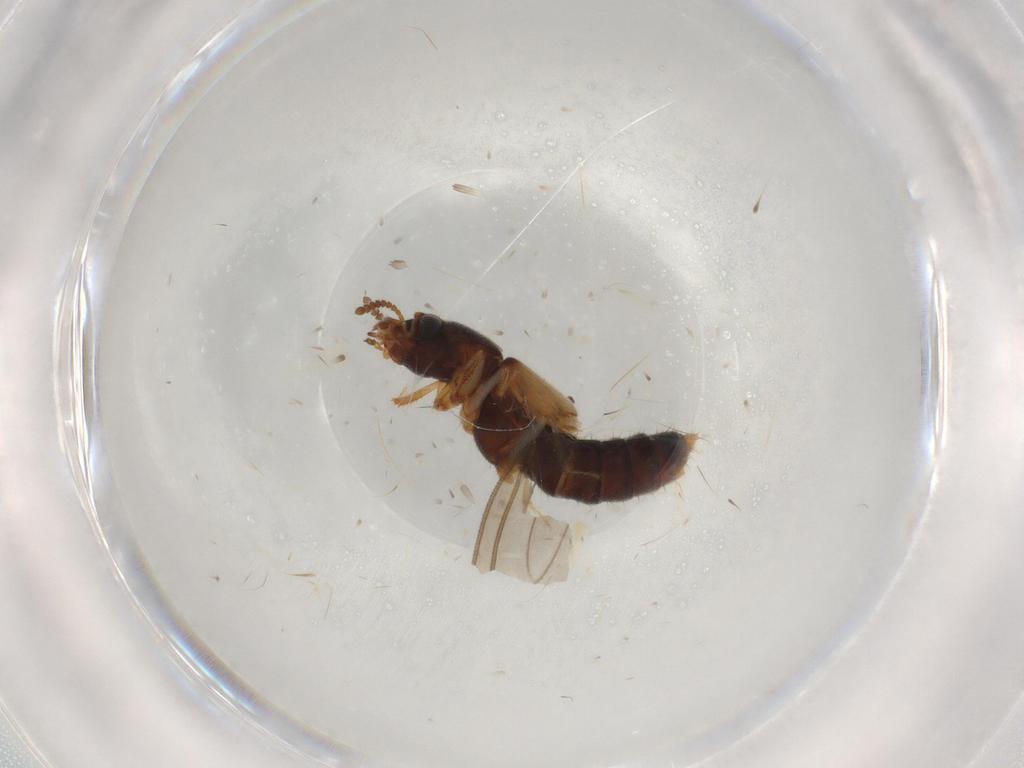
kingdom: Animalia
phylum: Arthropoda
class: Insecta
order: Coleoptera
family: Staphylinidae
